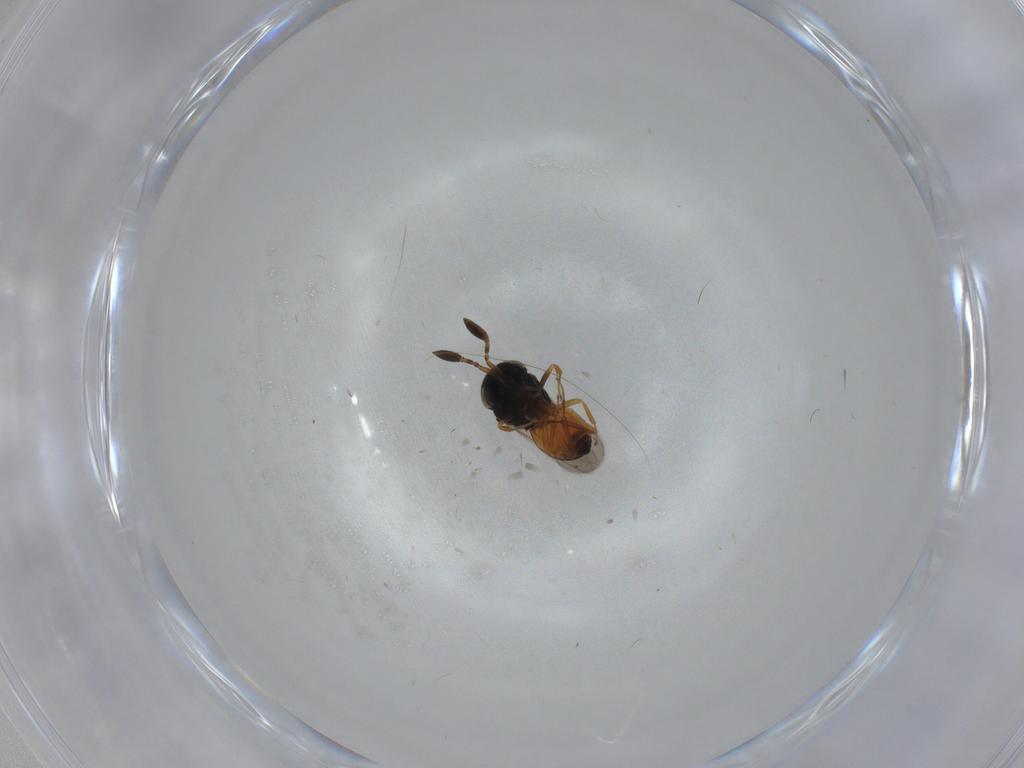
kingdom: Animalia
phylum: Arthropoda
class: Insecta
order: Hymenoptera
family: Scelionidae
